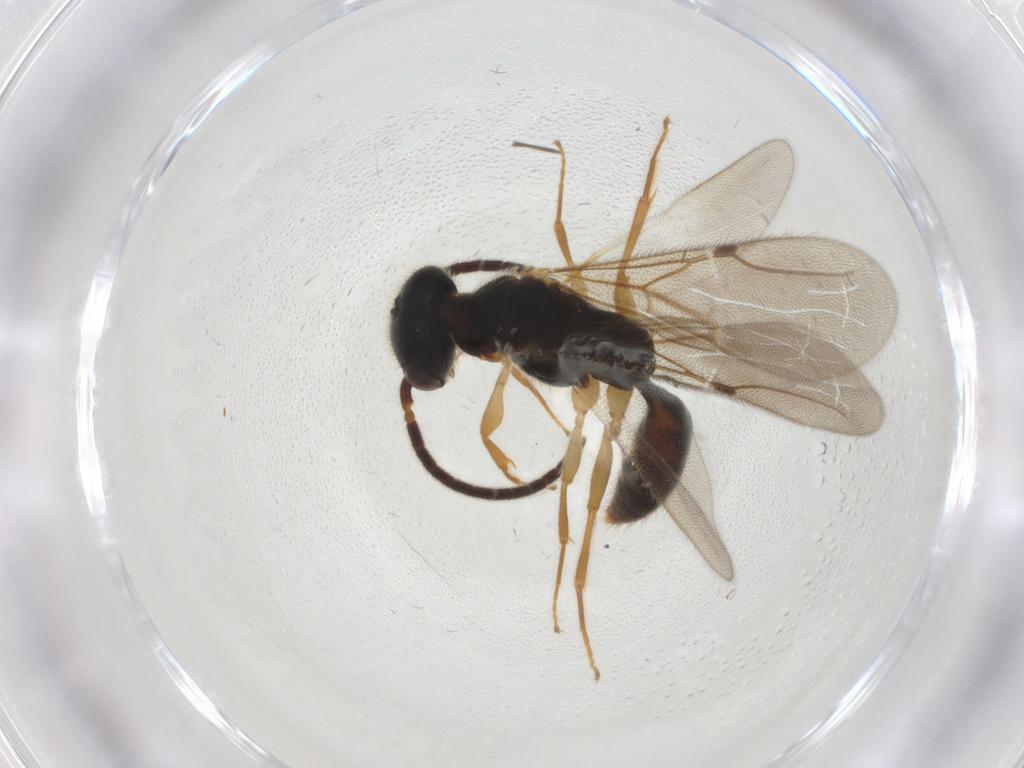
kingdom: Animalia
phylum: Arthropoda
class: Insecta
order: Hymenoptera
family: Bethylidae
